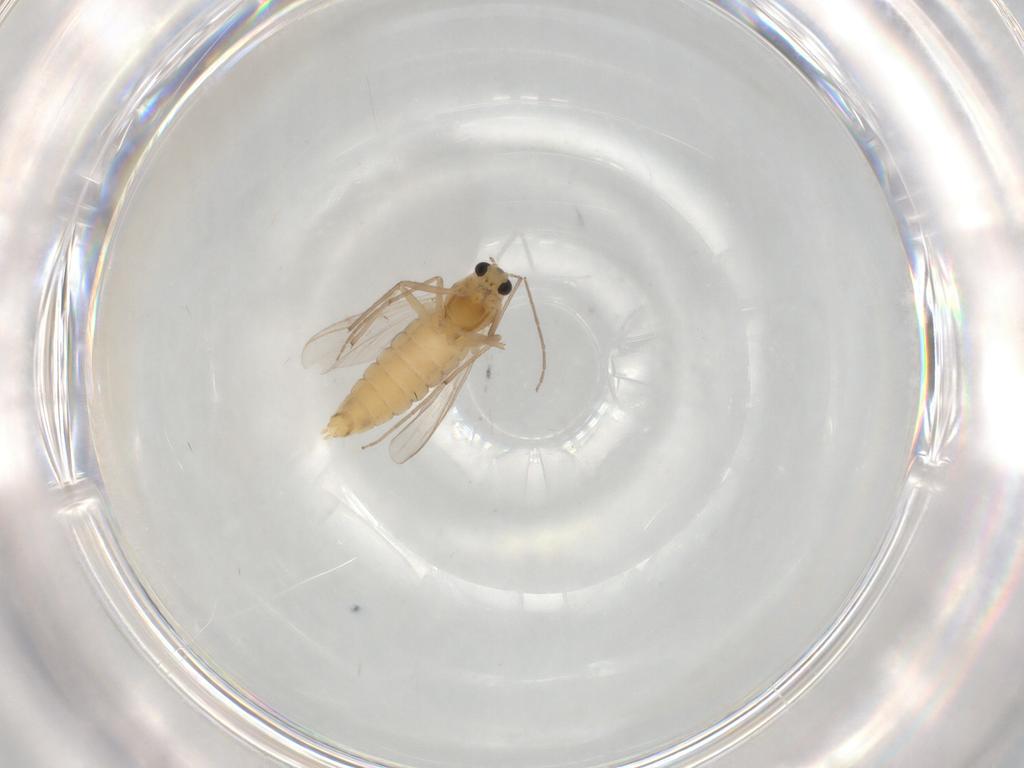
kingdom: Animalia
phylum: Arthropoda
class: Insecta
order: Diptera
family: Chironomidae
